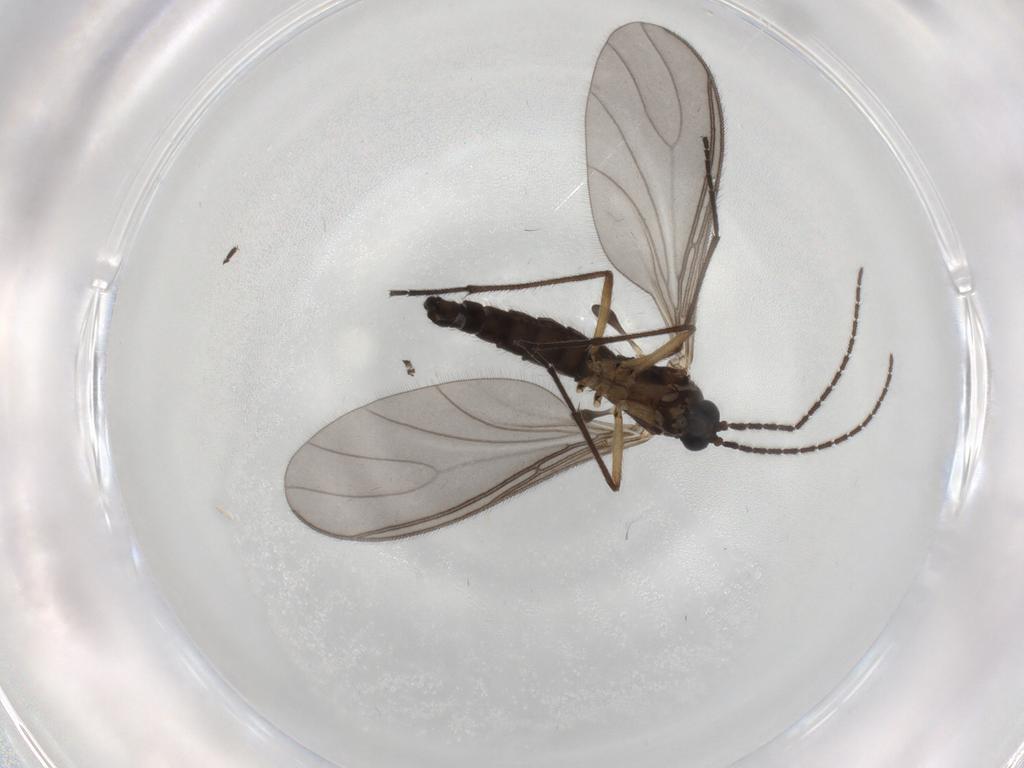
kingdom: Animalia
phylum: Arthropoda
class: Insecta
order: Diptera
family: Sciaridae
